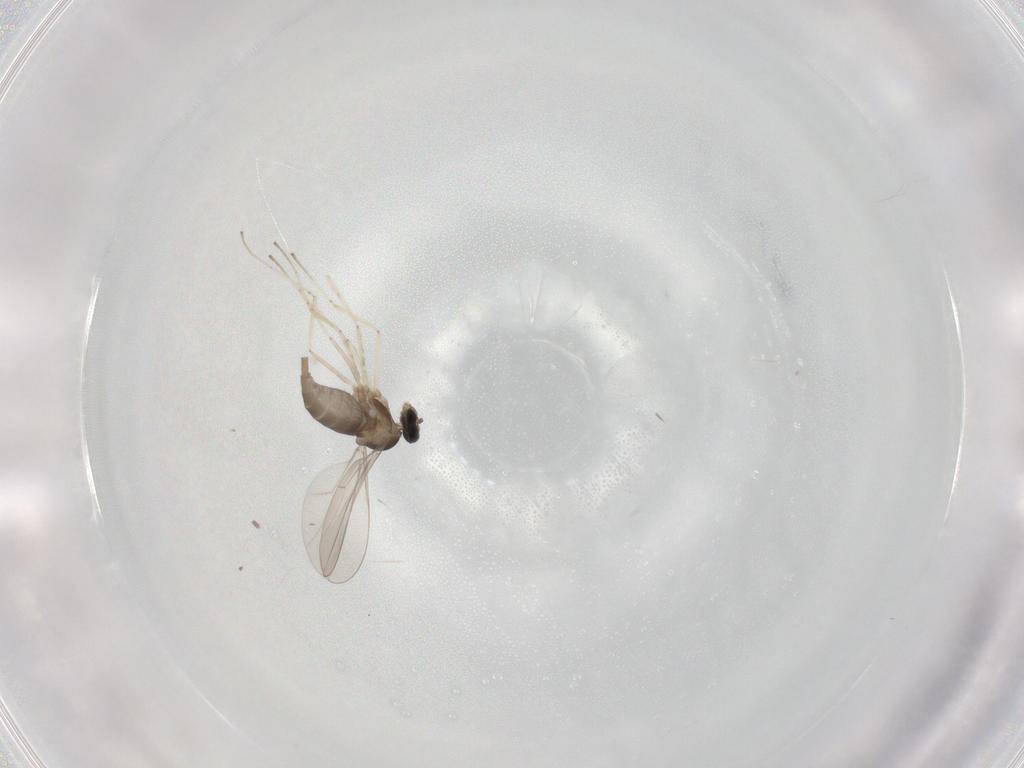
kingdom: Animalia
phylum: Arthropoda
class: Insecta
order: Diptera
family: Cecidomyiidae
